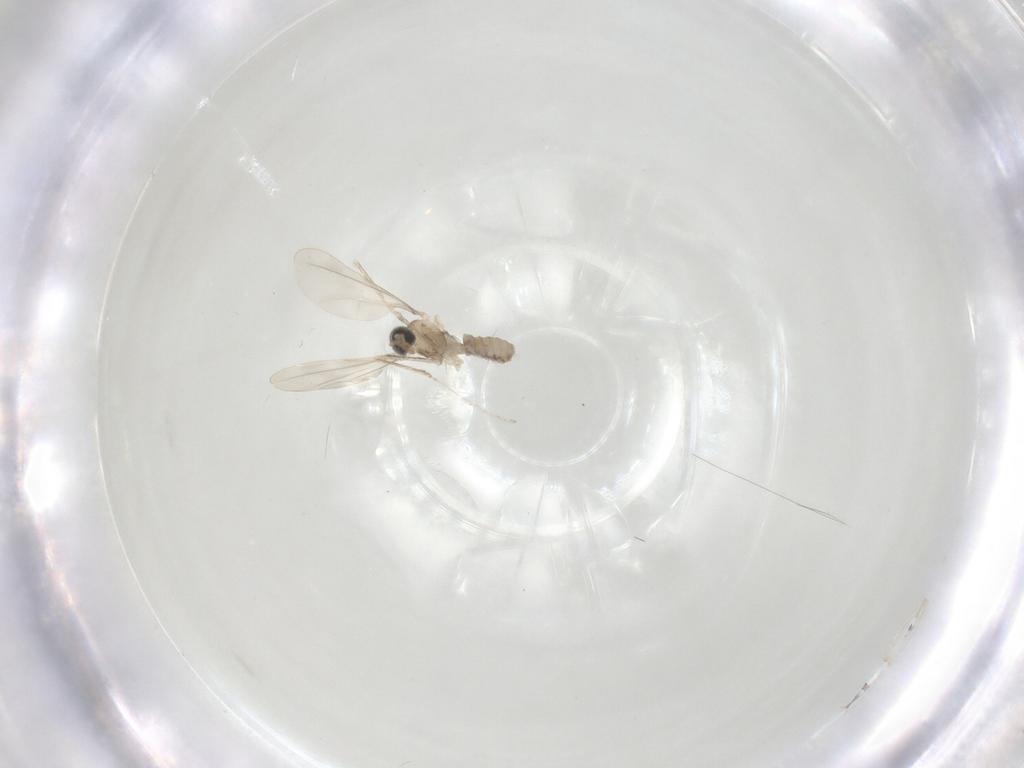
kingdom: Animalia
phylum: Arthropoda
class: Insecta
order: Diptera
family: Cecidomyiidae
